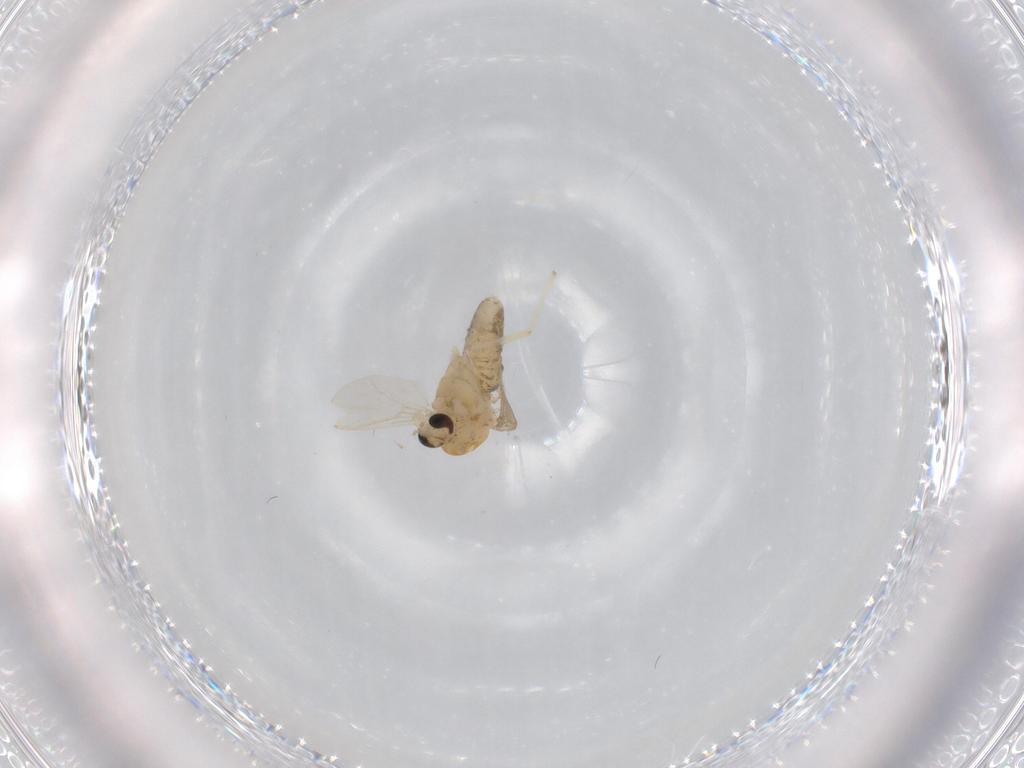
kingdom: Animalia
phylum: Arthropoda
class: Insecta
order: Diptera
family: Chironomidae
